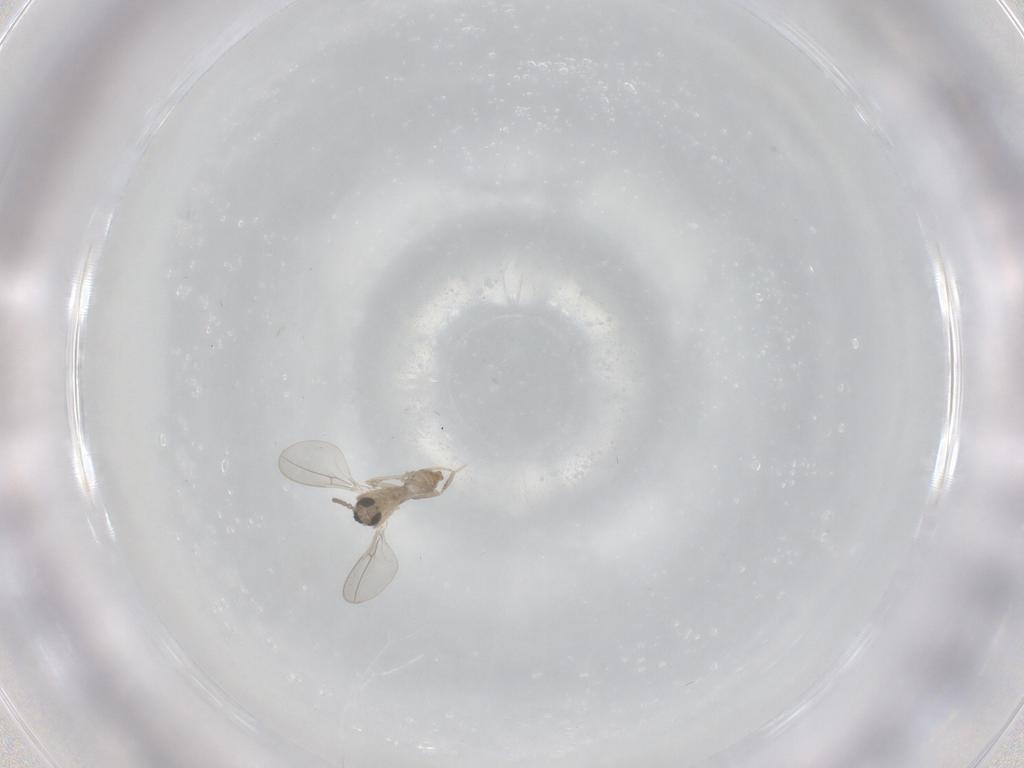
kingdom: Animalia
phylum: Arthropoda
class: Insecta
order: Diptera
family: Cecidomyiidae
